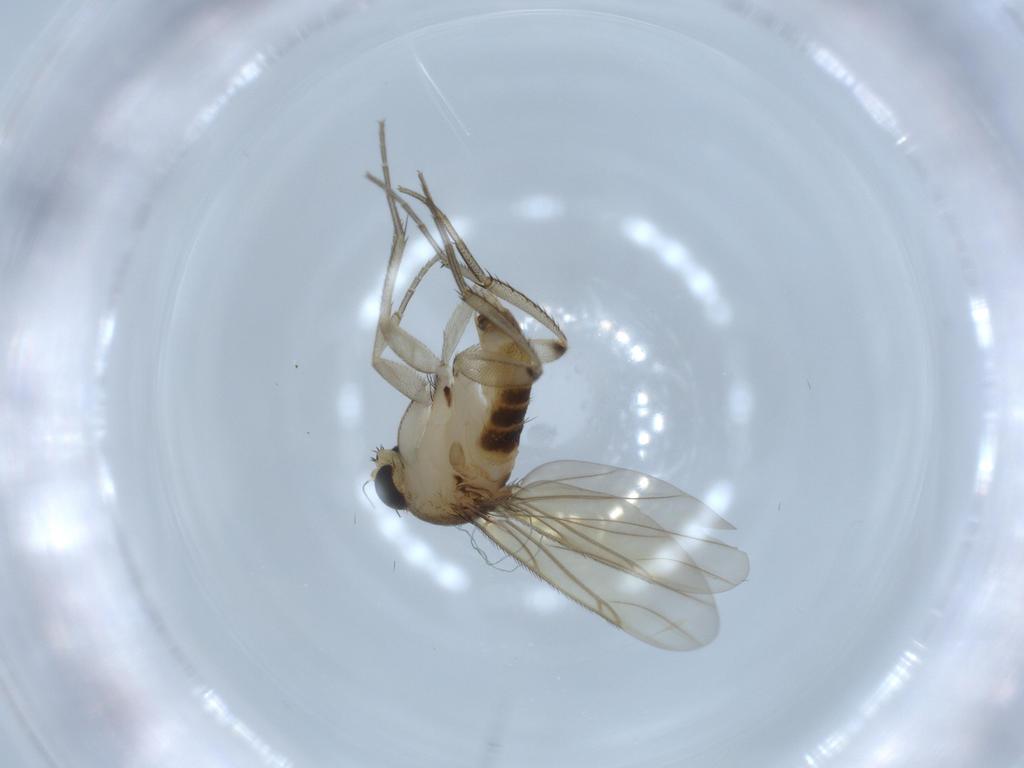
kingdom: Animalia
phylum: Arthropoda
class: Insecta
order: Diptera
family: Phoridae
